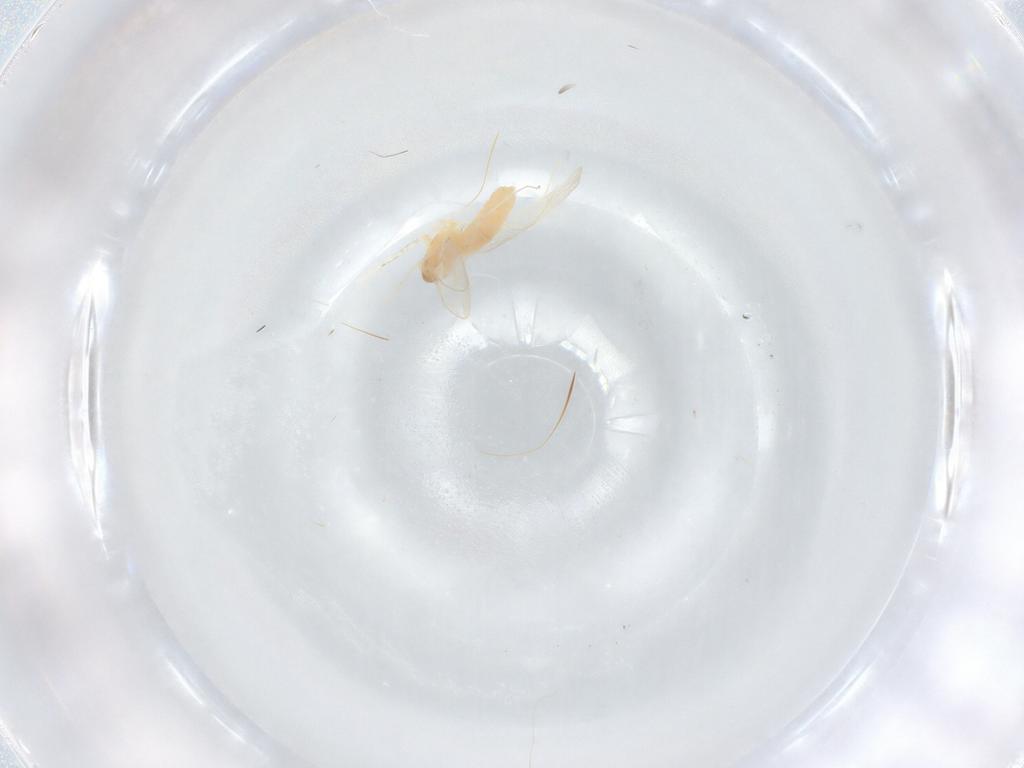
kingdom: Animalia
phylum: Arthropoda
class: Insecta
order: Diptera
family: Cecidomyiidae
